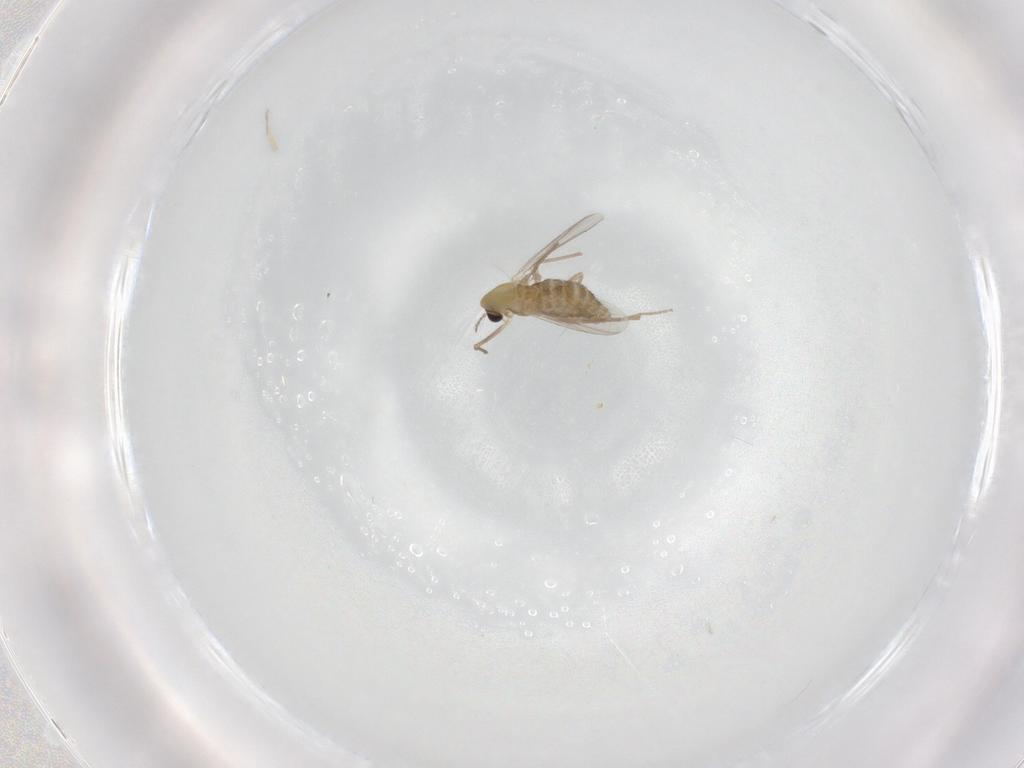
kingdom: Animalia
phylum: Arthropoda
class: Insecta
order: Diptera
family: Chironomidae
